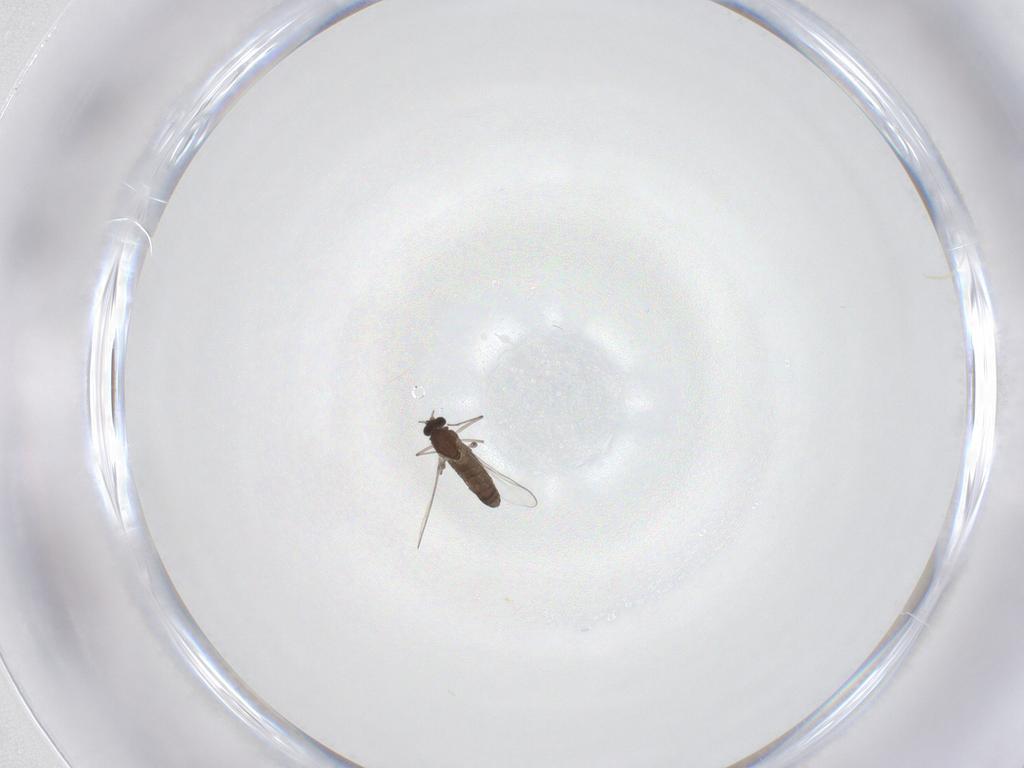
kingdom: Animalia
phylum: Arthropoda
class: Insecta
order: Diptera
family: Chironomidae
